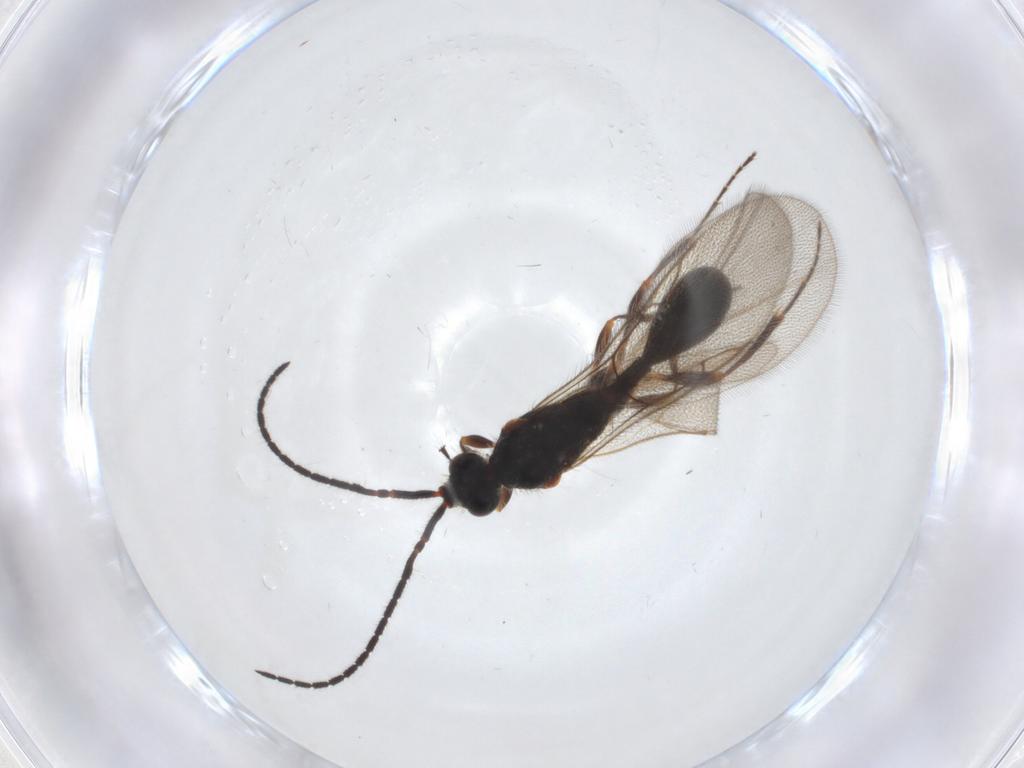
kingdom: Animalia
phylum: Arthropoda
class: Insecta
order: Hymenoptera
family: Diapriidae
